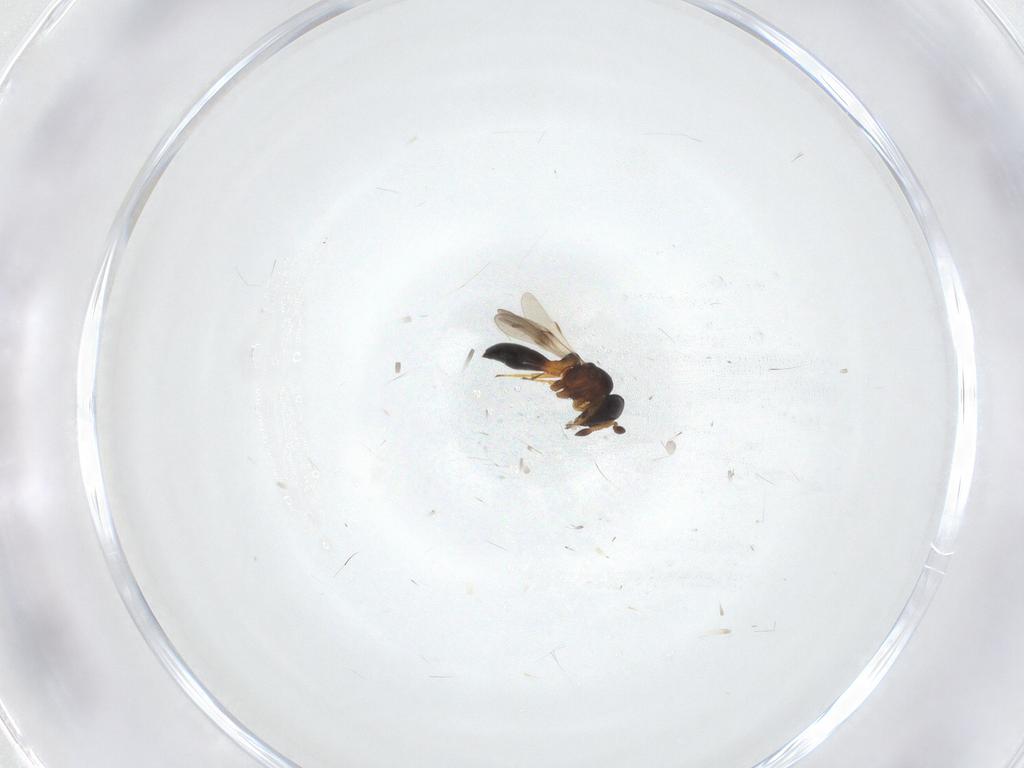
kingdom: Animalia
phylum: Arthropoda
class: Insecta
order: Hymenoptera
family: Scelionidae
